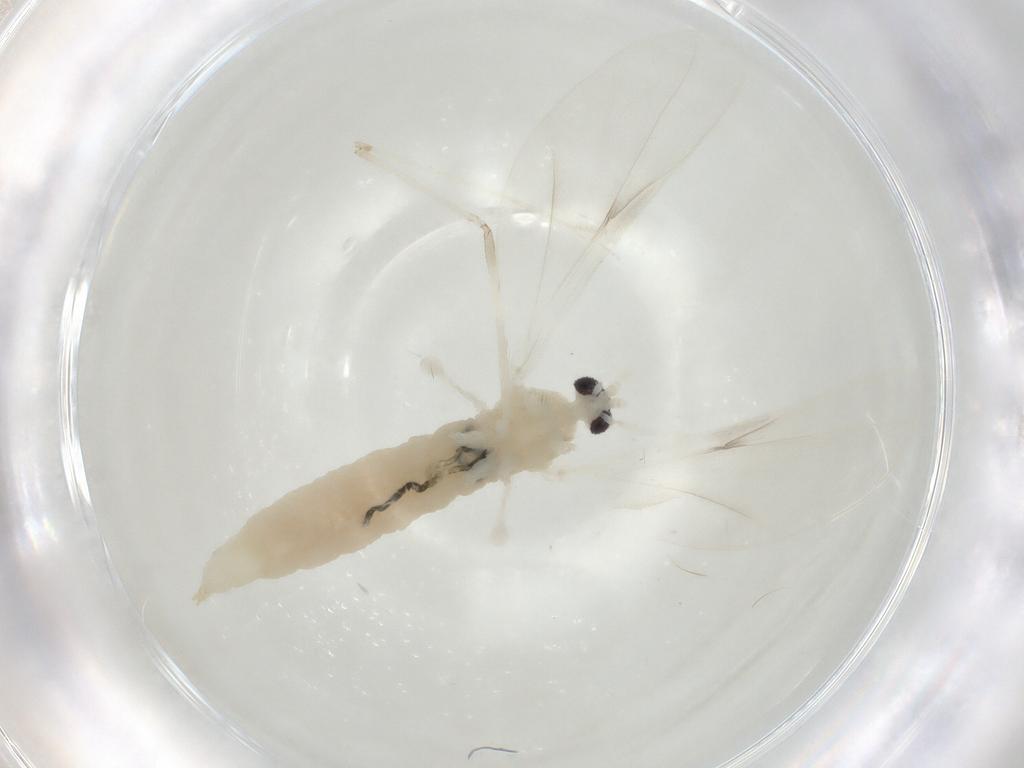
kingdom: Animalia
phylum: Arthropoda
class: Insecta
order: Diptera
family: Cecidomyiidae
